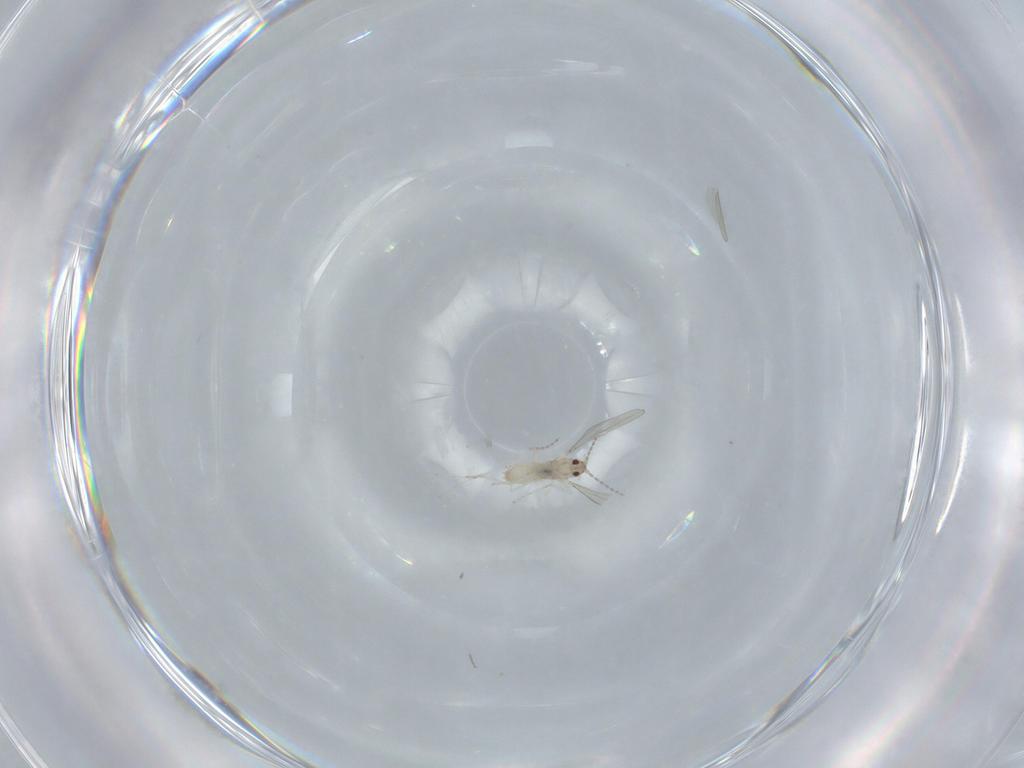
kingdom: Animalia
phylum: Arthropoda
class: Insecta
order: Diptera
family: Cecidomyiidae
